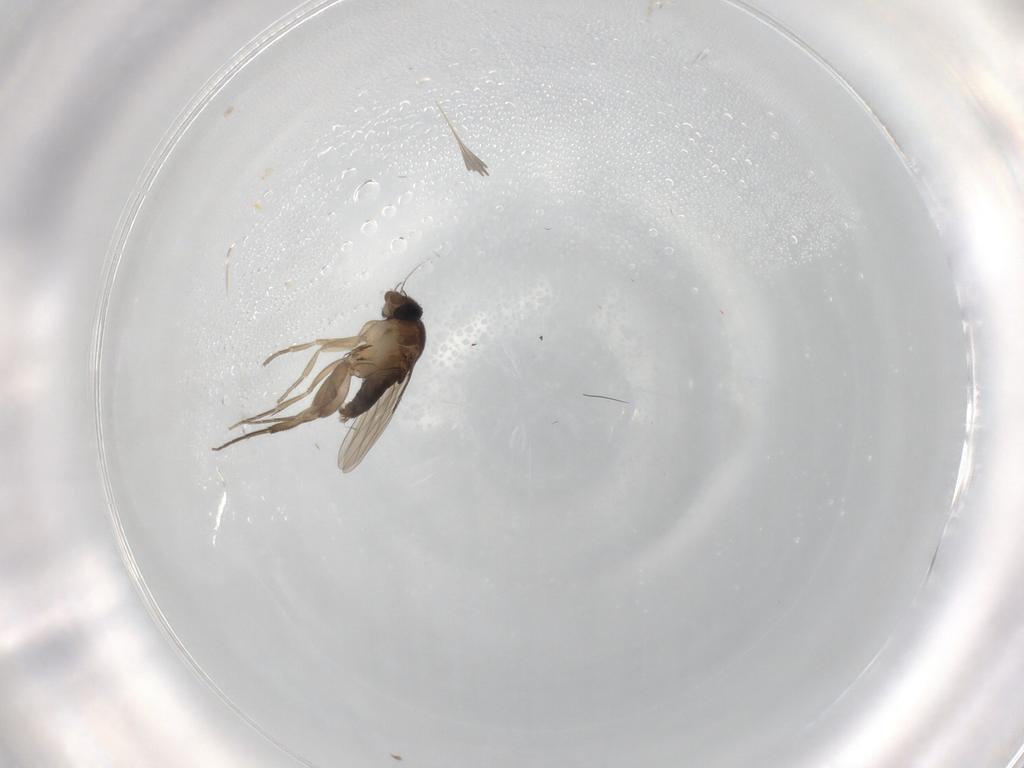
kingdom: Animalia
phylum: Arthropoda
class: Insecta
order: Diptera
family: Phoridae
